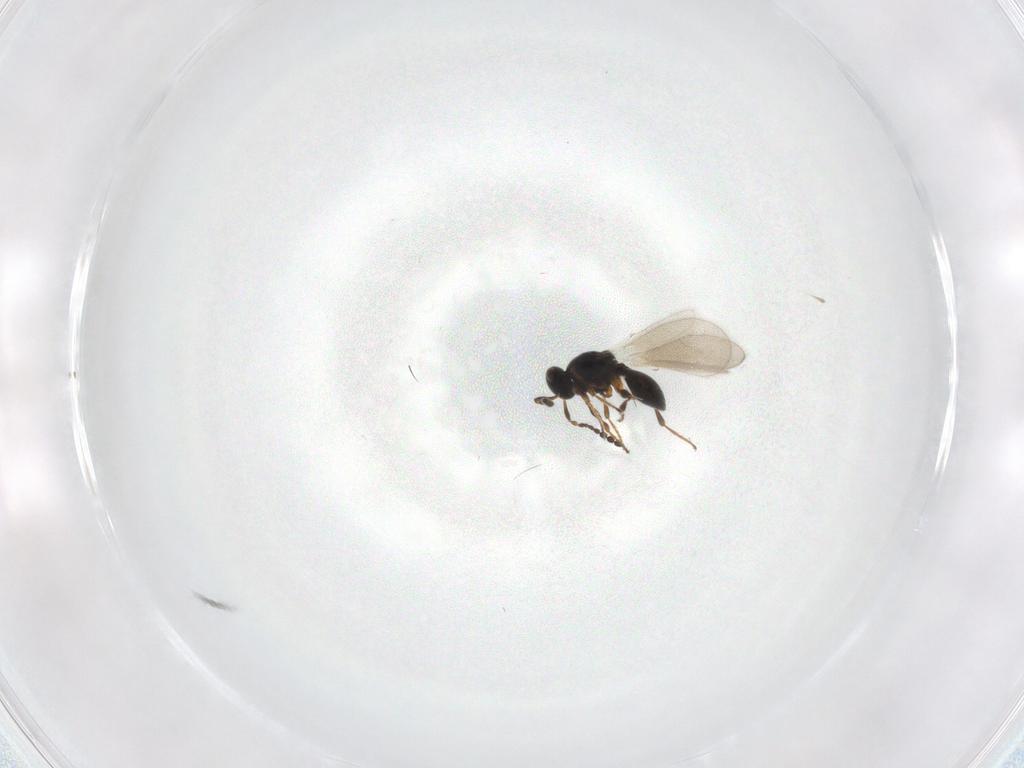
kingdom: Animalia
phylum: Arthropoda
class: Insecta
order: Hymenoptera
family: Platygastridae
